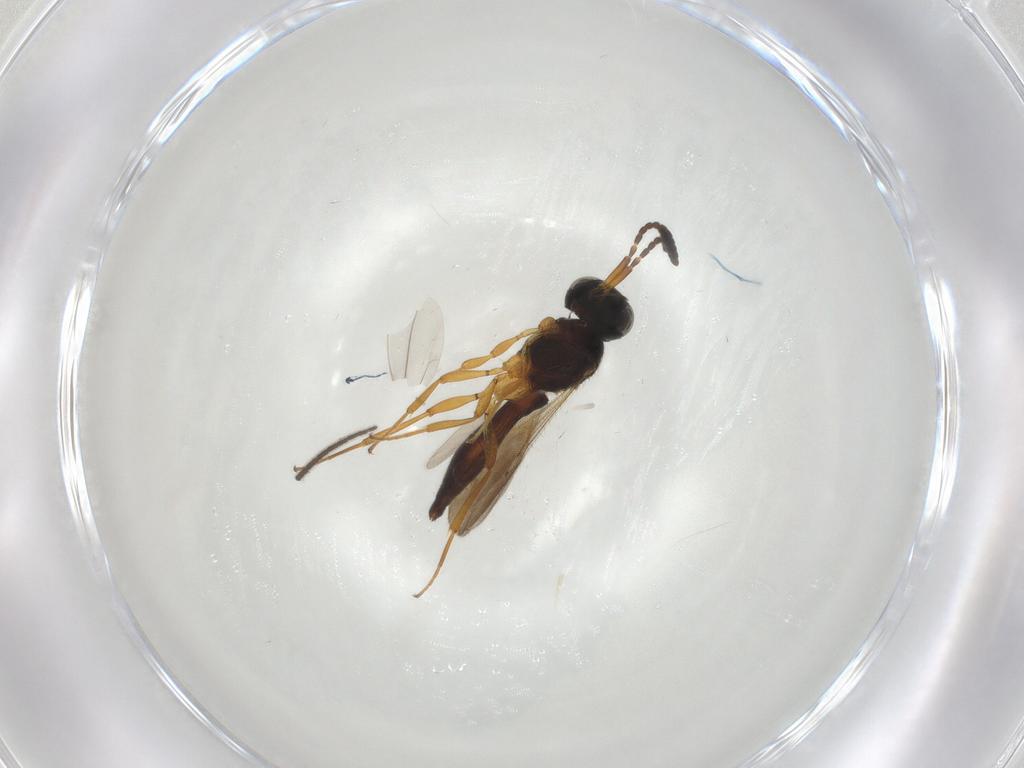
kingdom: Animalia
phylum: Arthropoda
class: Insecta
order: Hymenoptera
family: Scelionidae
